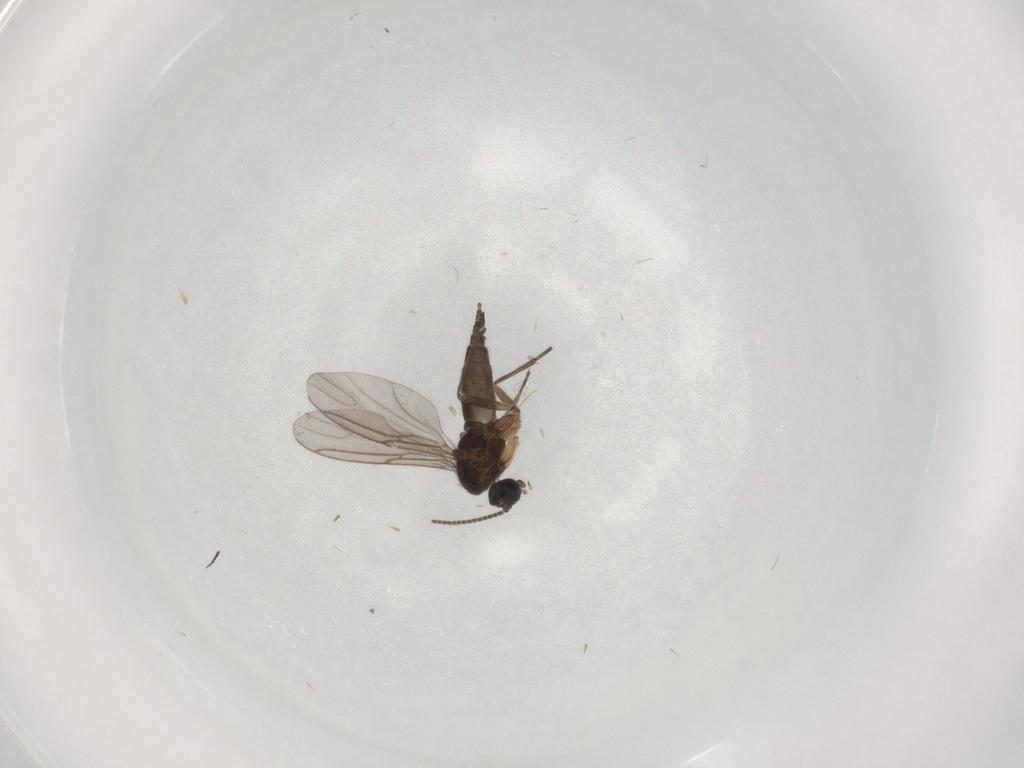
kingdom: Animalia
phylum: Arthropoda
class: Insecta
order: Diptera
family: Sciaridae
